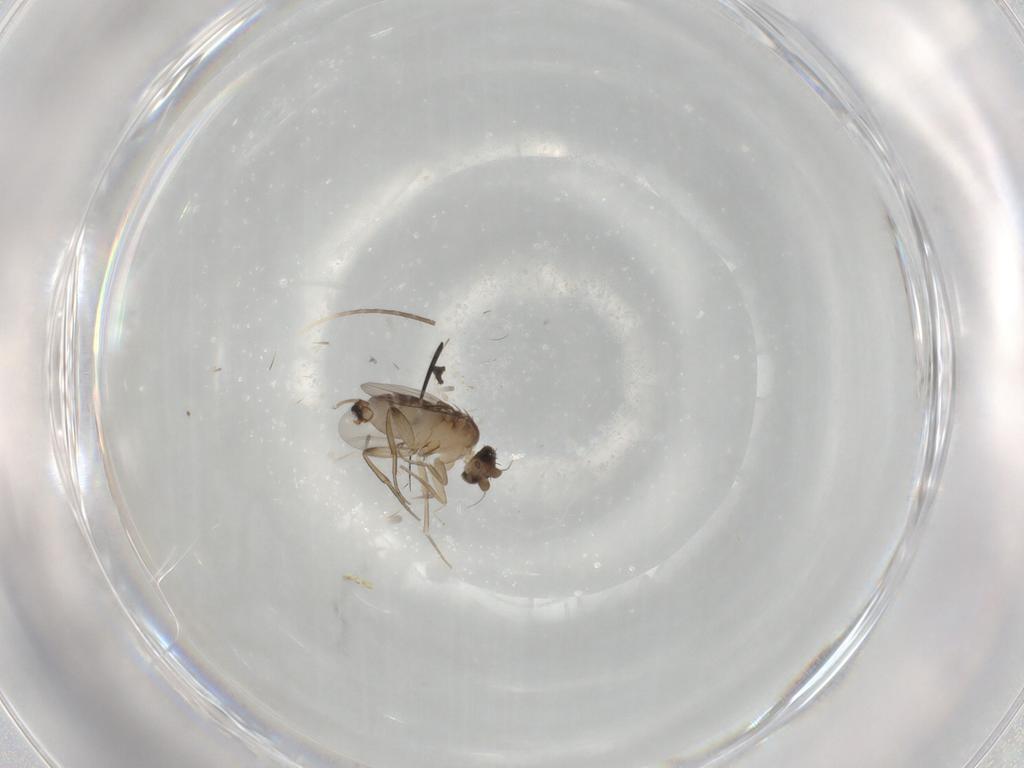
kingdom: Animalia
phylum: Arthropoda
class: Insecta
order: Diptera
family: Phoridae
